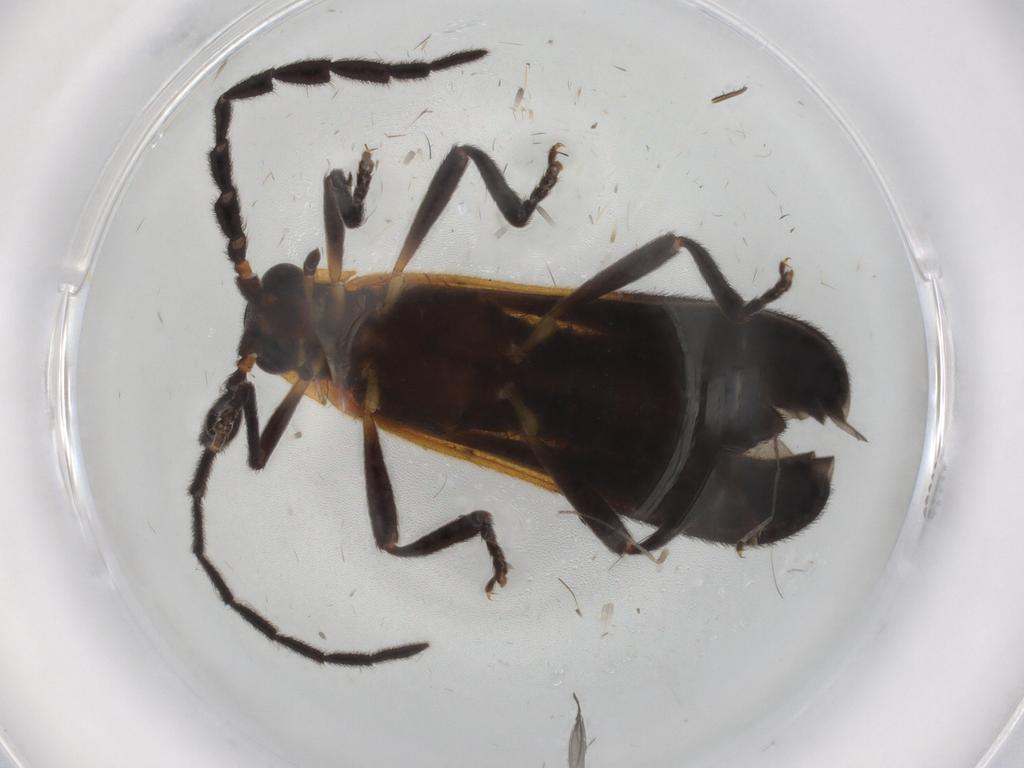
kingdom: Animalia
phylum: Arthropoda
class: Insecta
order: Coleoptera
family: Lycidae
